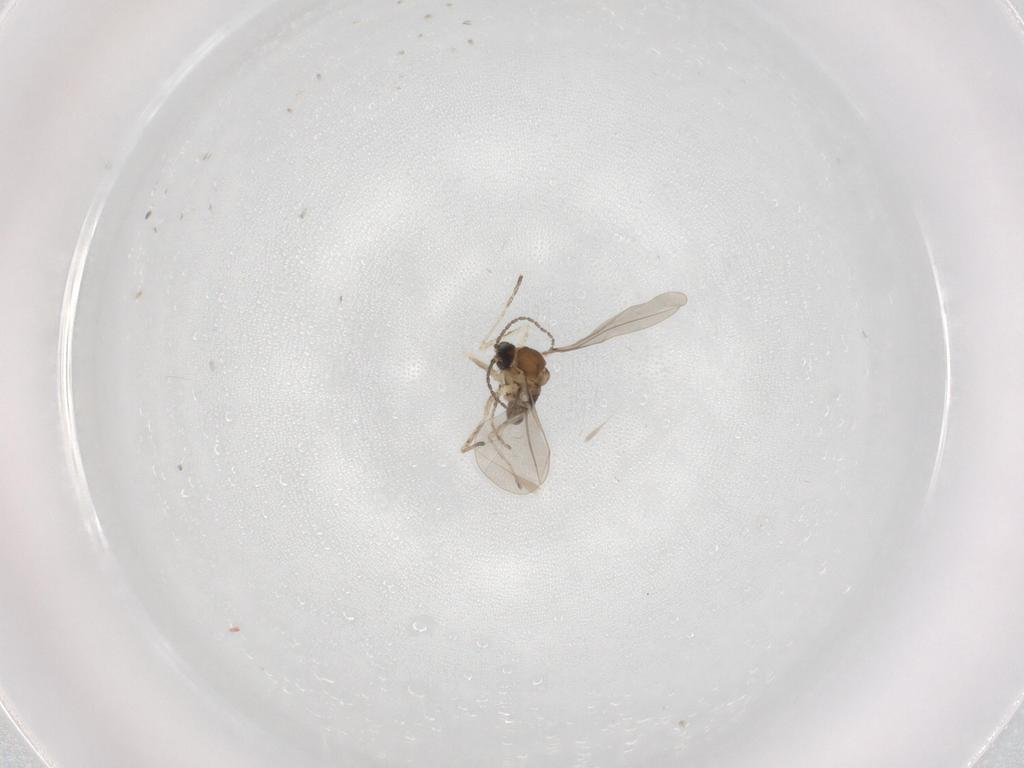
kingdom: Animalia
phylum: Arthropoda
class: Insecta
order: Diptera
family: Cecidomyiidae
